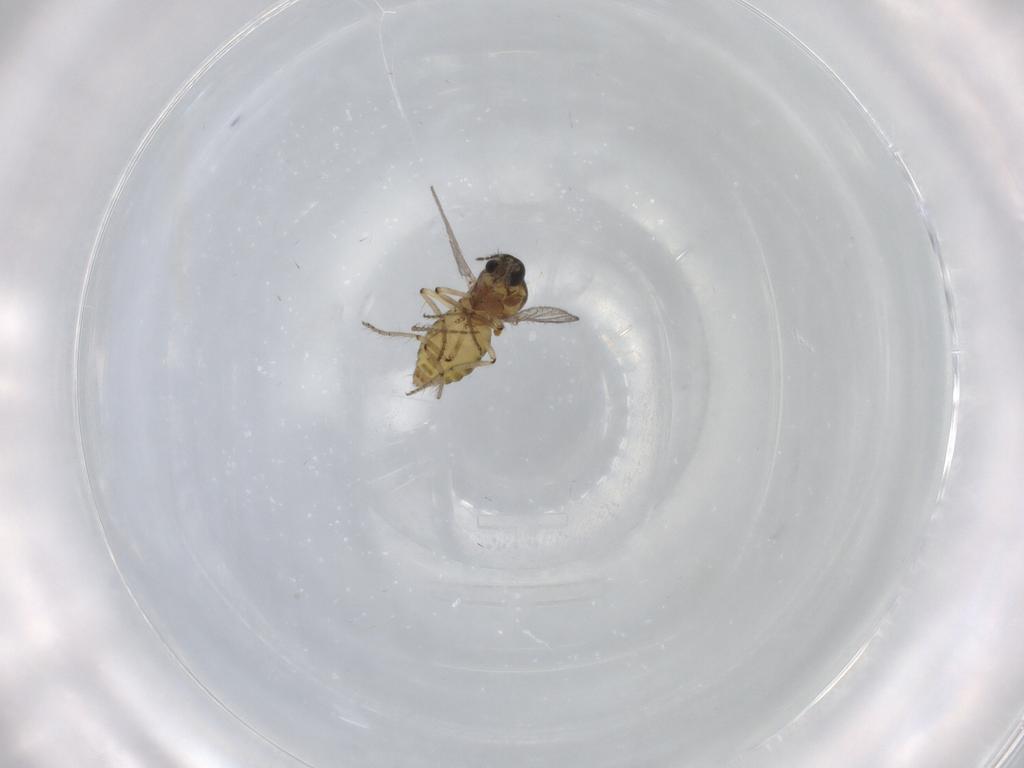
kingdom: Animalia
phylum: Arthropoda
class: Insecta
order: Diptera
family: Ceratopogonidae
